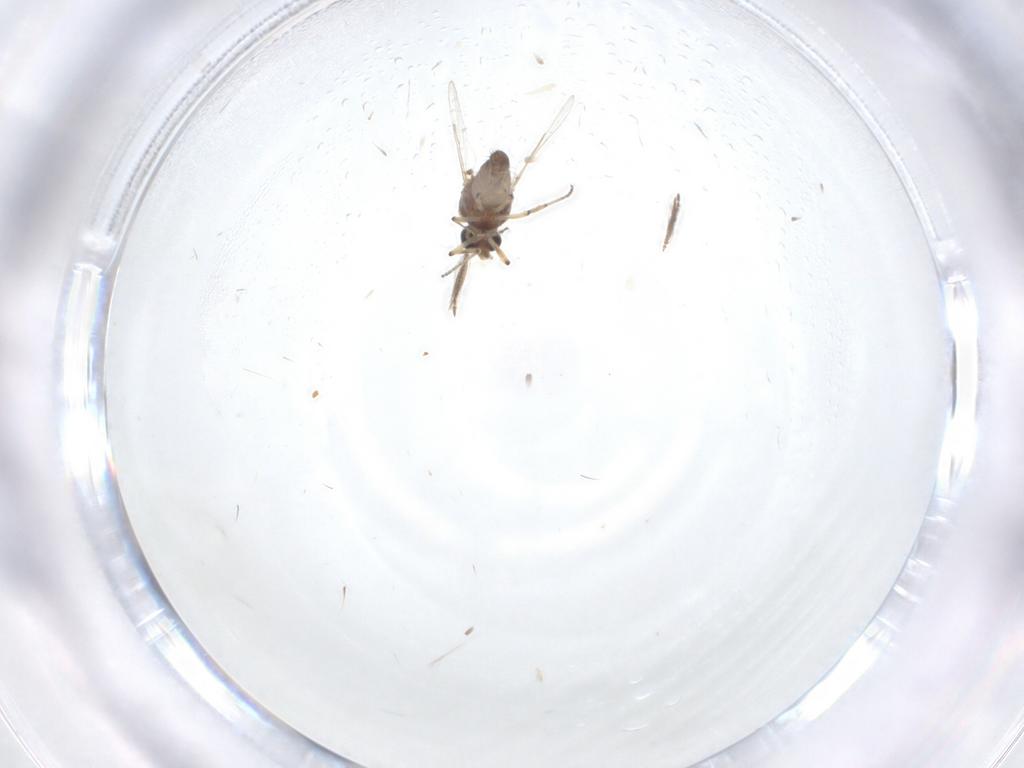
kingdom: Animalia
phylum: Arthropoda
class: Insecta
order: Diptera
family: Ceratopogonidae
